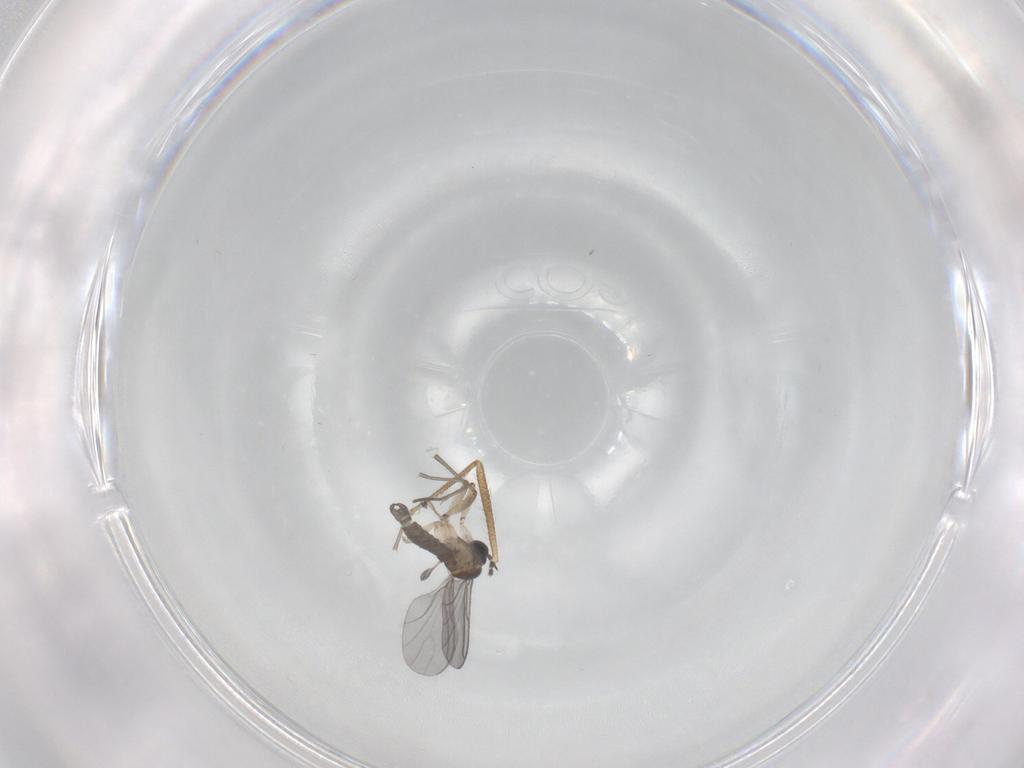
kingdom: Animalia
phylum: Arthropoda
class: Insecta
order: Diptera
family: Sciaridae
